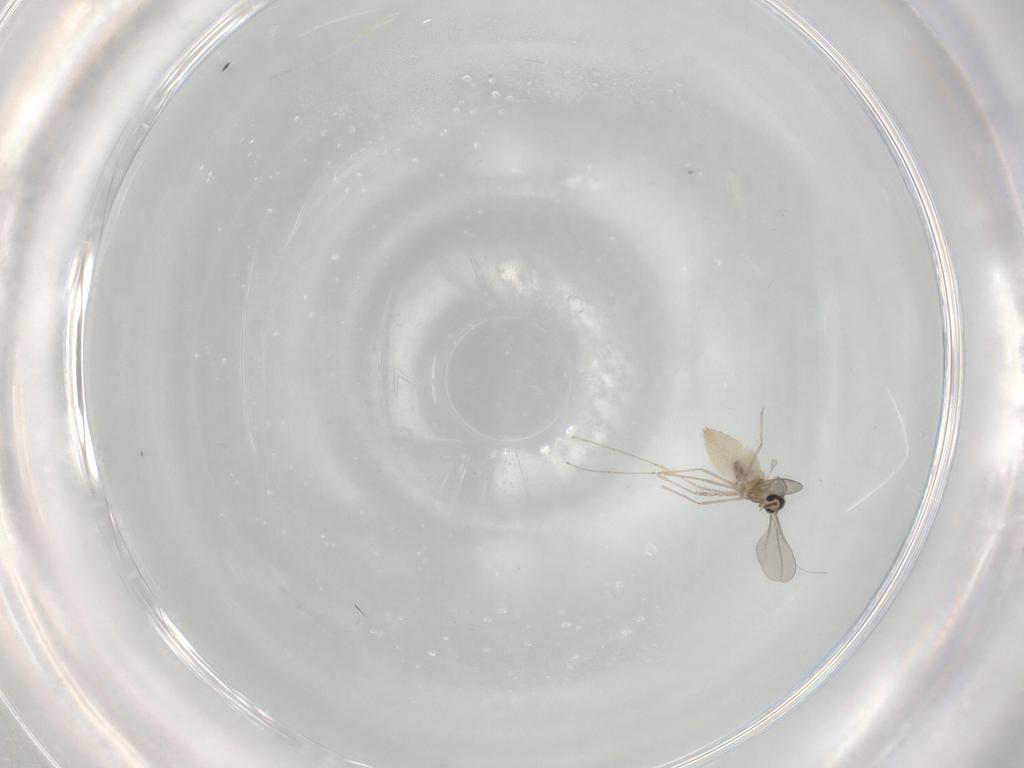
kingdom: Animalia
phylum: Arthropoda
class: Insecta
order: Diptera
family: Cecidomyiidae
